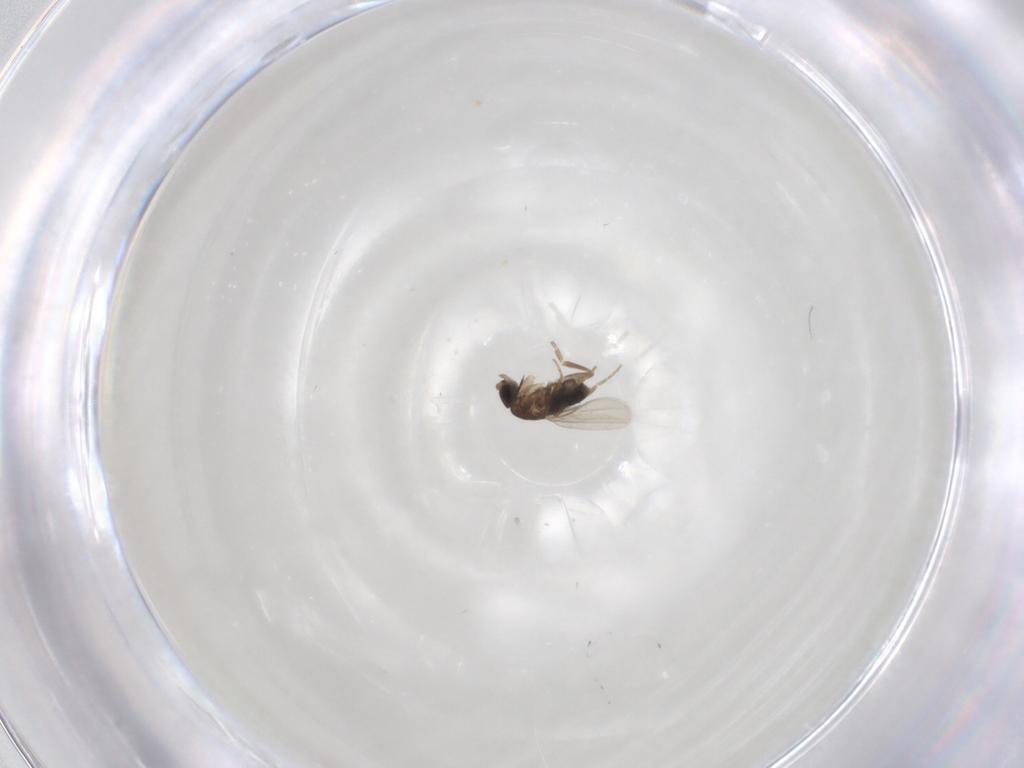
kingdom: Animalia
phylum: Arthropoda
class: Insecta
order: Diptera
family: Phoridae
